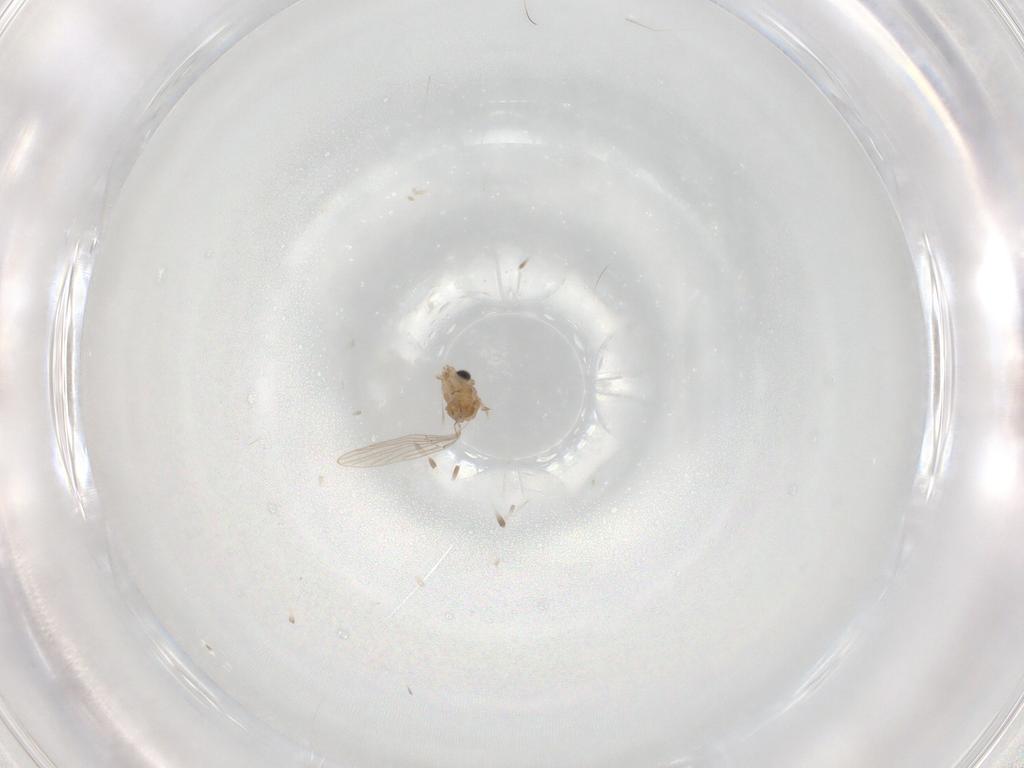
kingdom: Animalia
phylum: Arthropoda
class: Insecta
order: Diptera
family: Psychodidae
